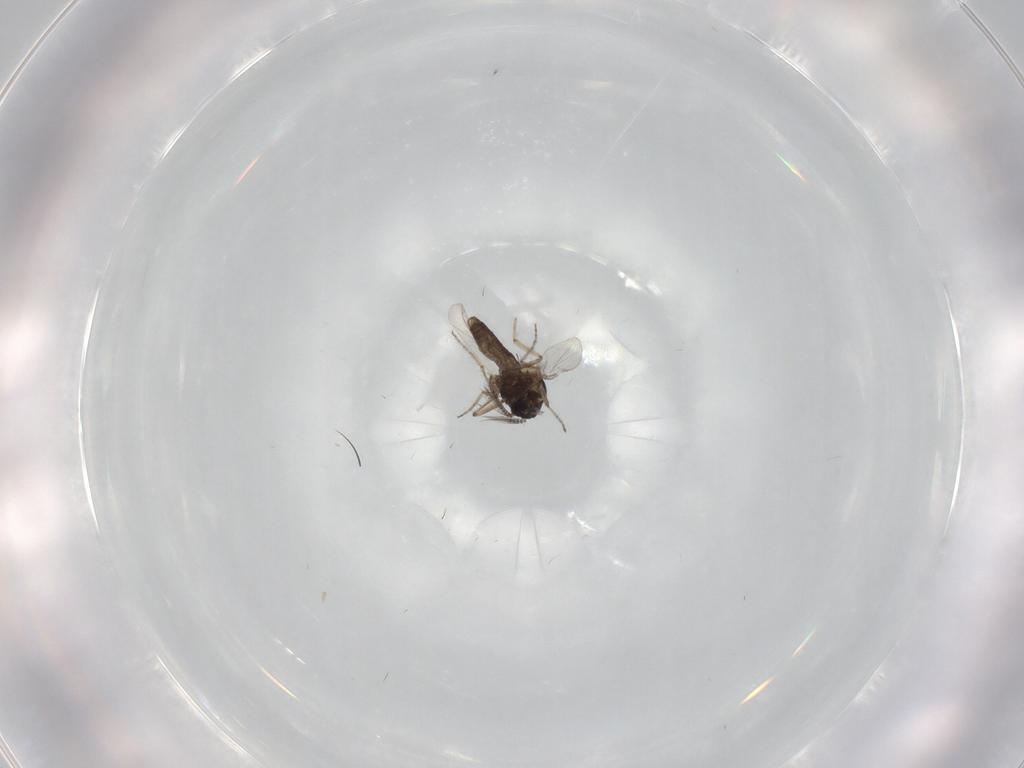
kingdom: Animalia
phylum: Arthropoda
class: Insecta
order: Diptera
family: Ceratopogonidae
